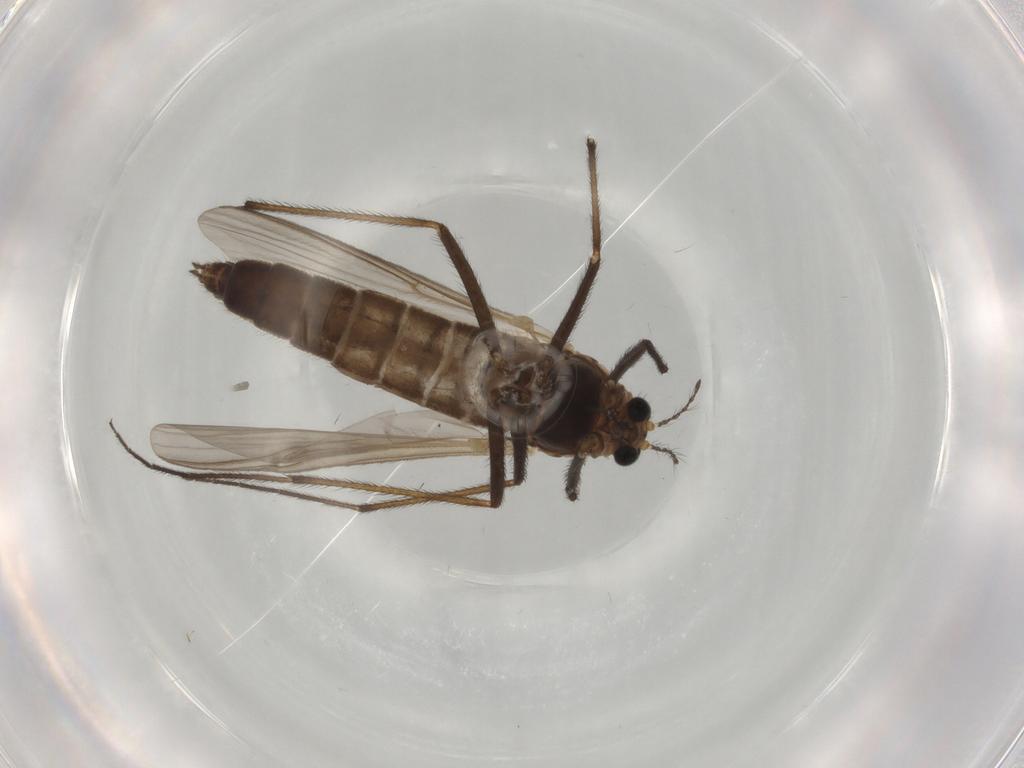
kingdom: Animalia
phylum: Arthropoda
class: Insecta
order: Diptera
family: Chironomidae
